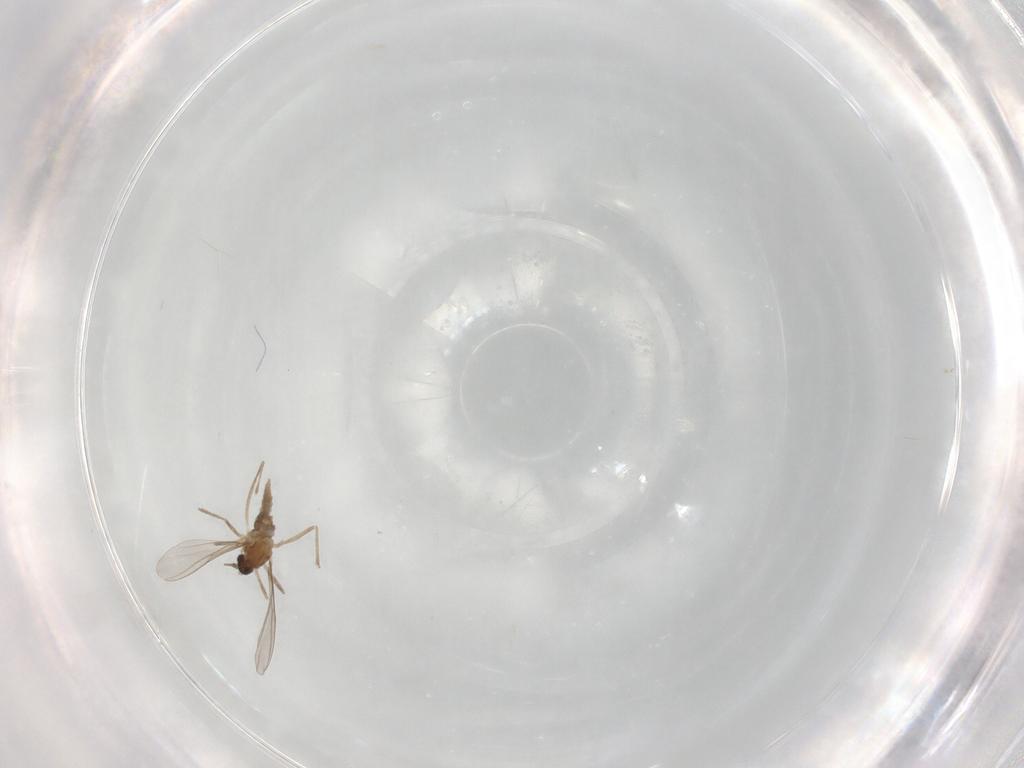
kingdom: Animalia
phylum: Arthropoda
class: Insecta
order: Diptera
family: Cecidomyiidae
